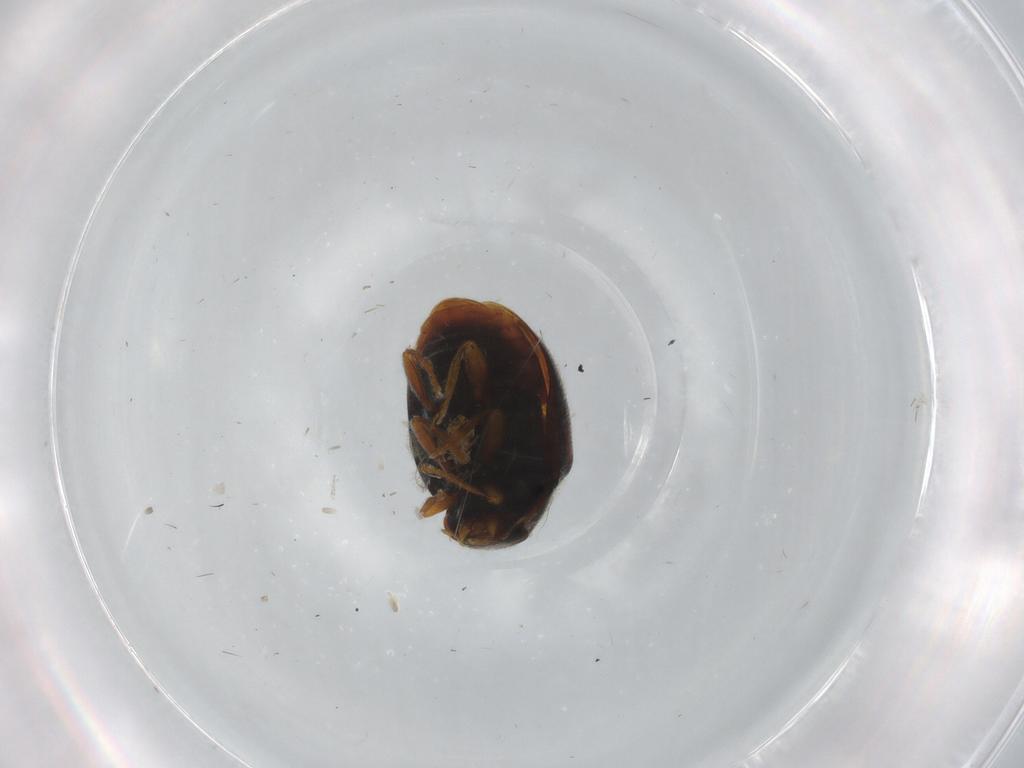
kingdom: Animalia
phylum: Arthropoda
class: Insecta
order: Coleoptera
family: Coccinellidae
